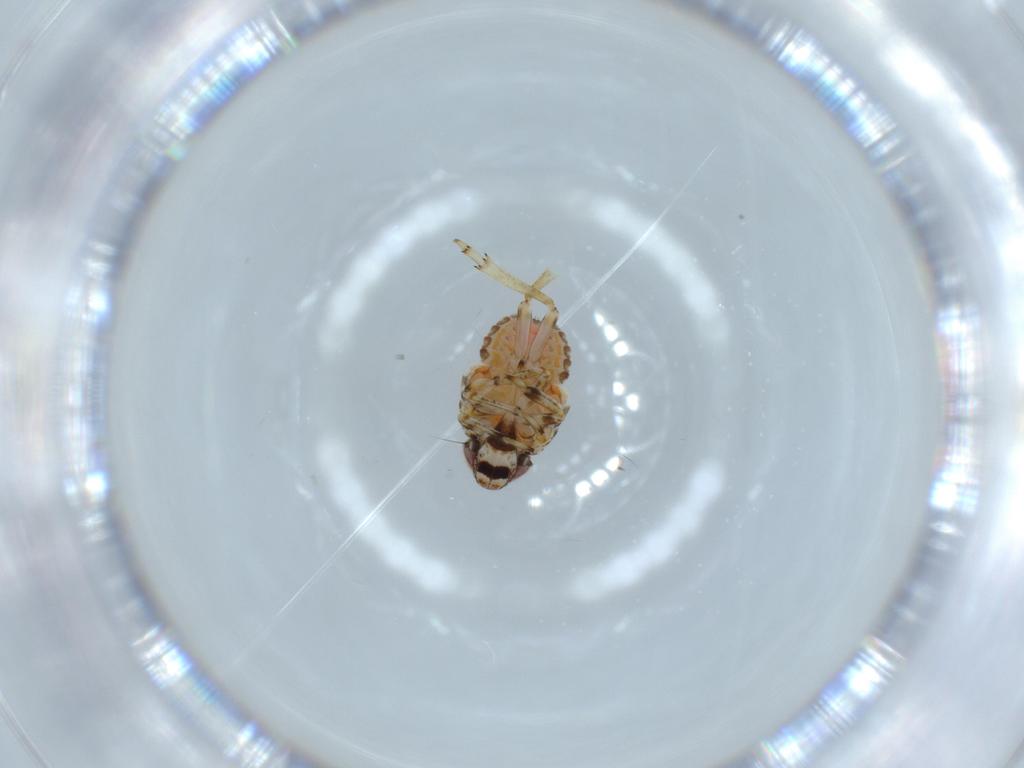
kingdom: Animalia
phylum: Arthropoda
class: Insecta
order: Hemiptera
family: Issidae
